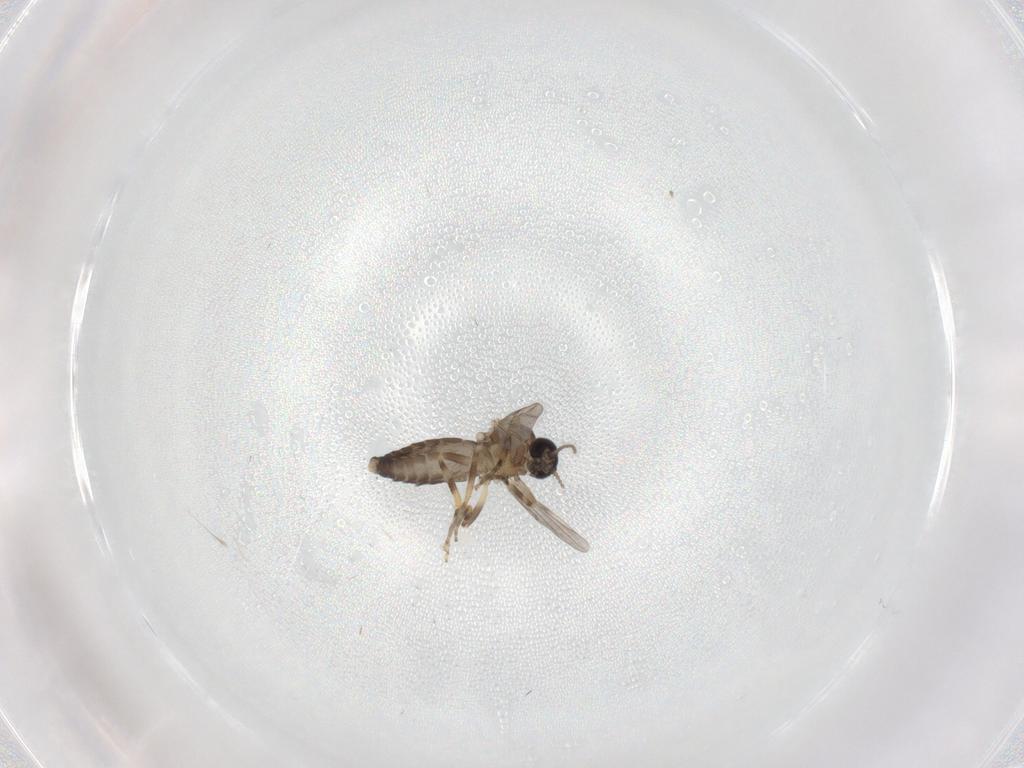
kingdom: Animalia
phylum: Arthropoda
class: Insecta
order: Diptera
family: Ceratopogonidae
